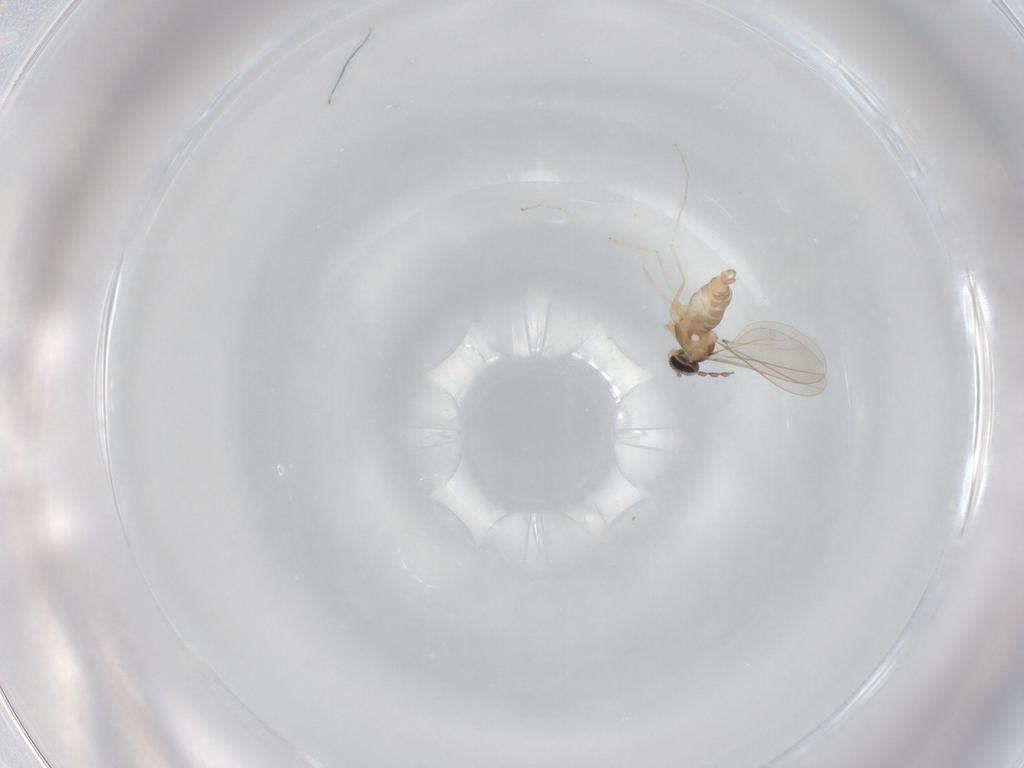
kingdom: Animalia
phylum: Arthropoda
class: Insecta
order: Diptera
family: Cecidomyiidae
